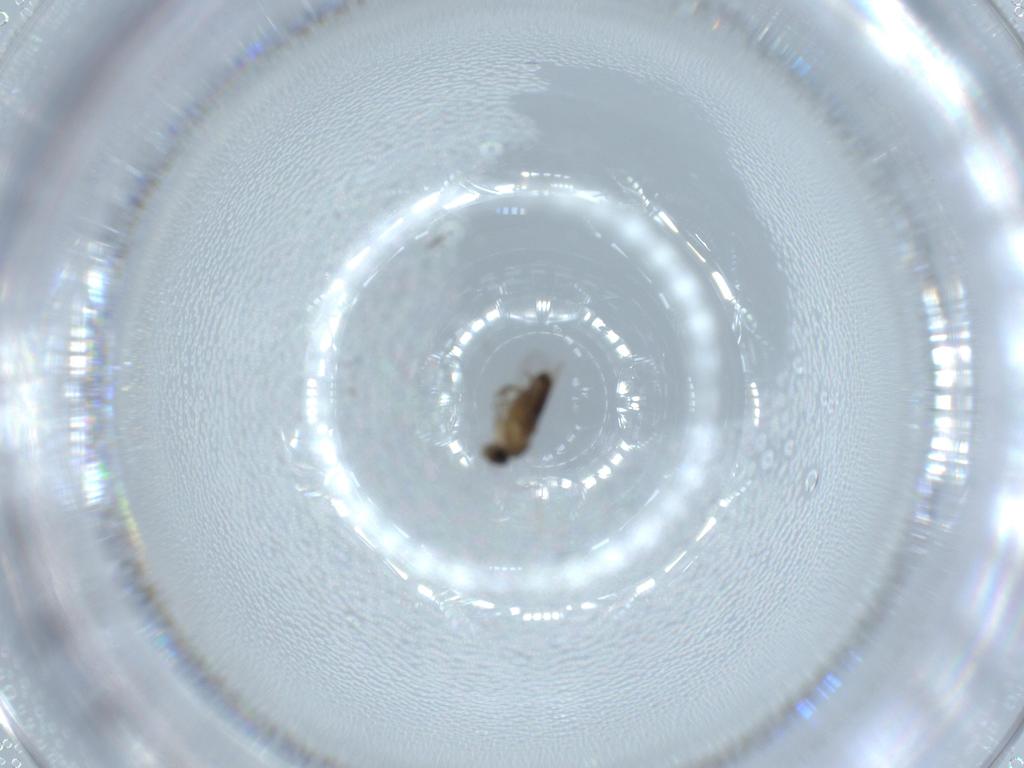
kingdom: Animalia
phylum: Arthropoda
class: Insecta
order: Diptera
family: Phoridae
